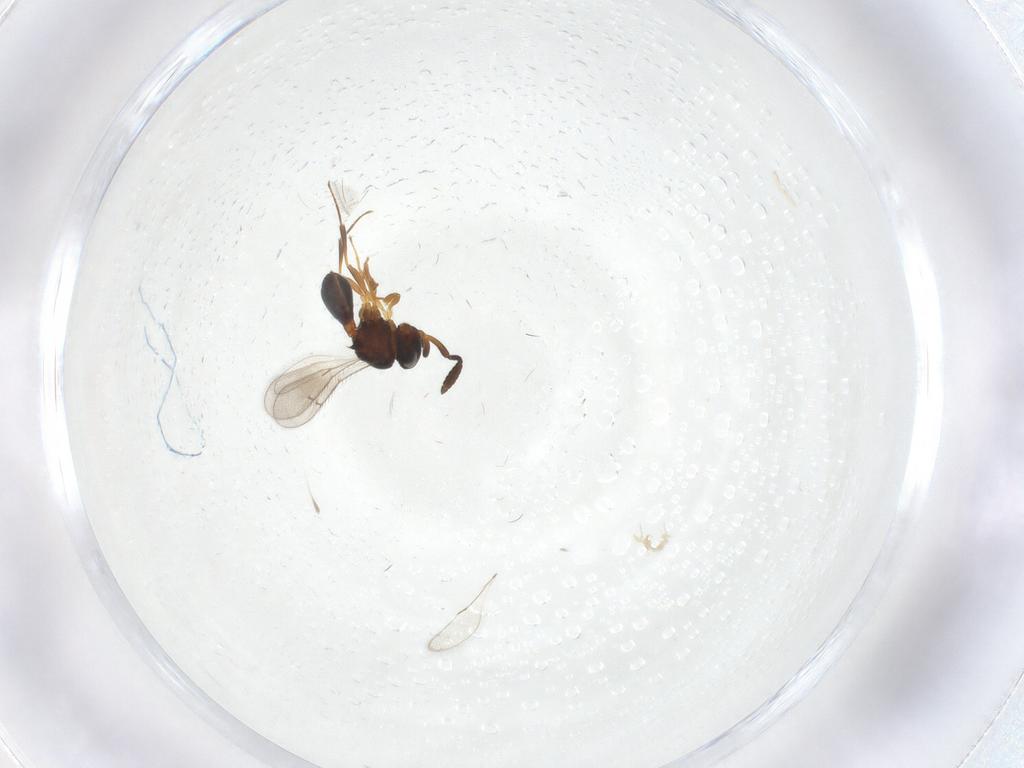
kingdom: Animalia
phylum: Arthropoda
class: Insecta
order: Hymenoptera
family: Scelionidae
